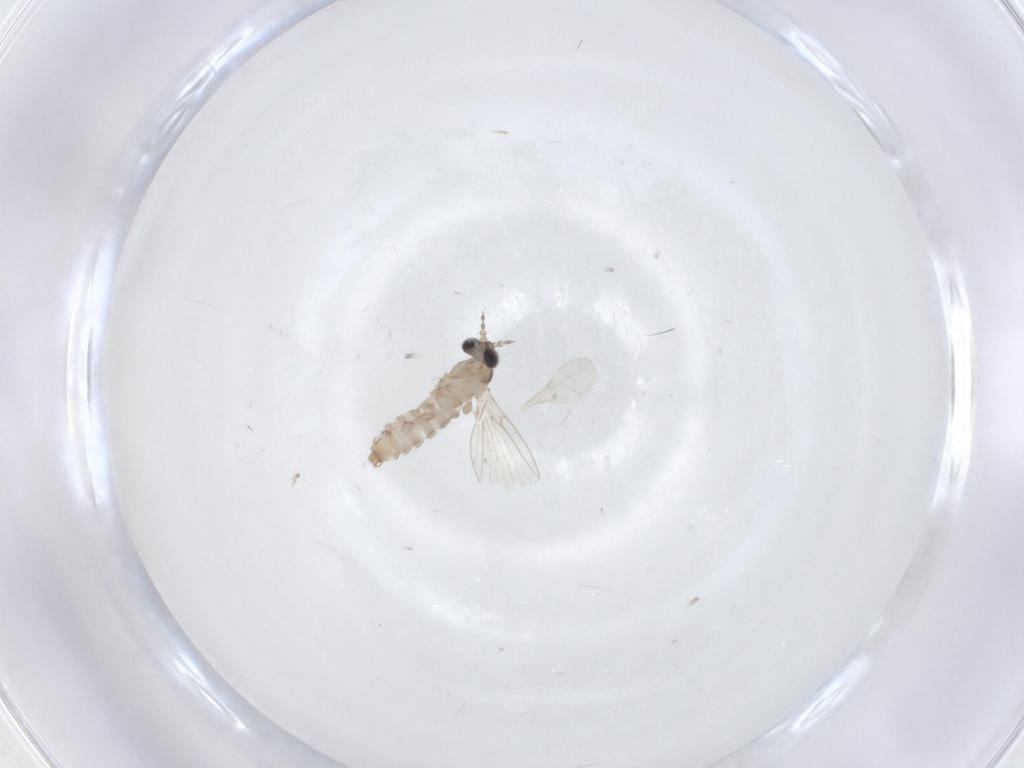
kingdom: Animalia
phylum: Arthropoda
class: Insecta
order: Diptera
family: Psychodidae
